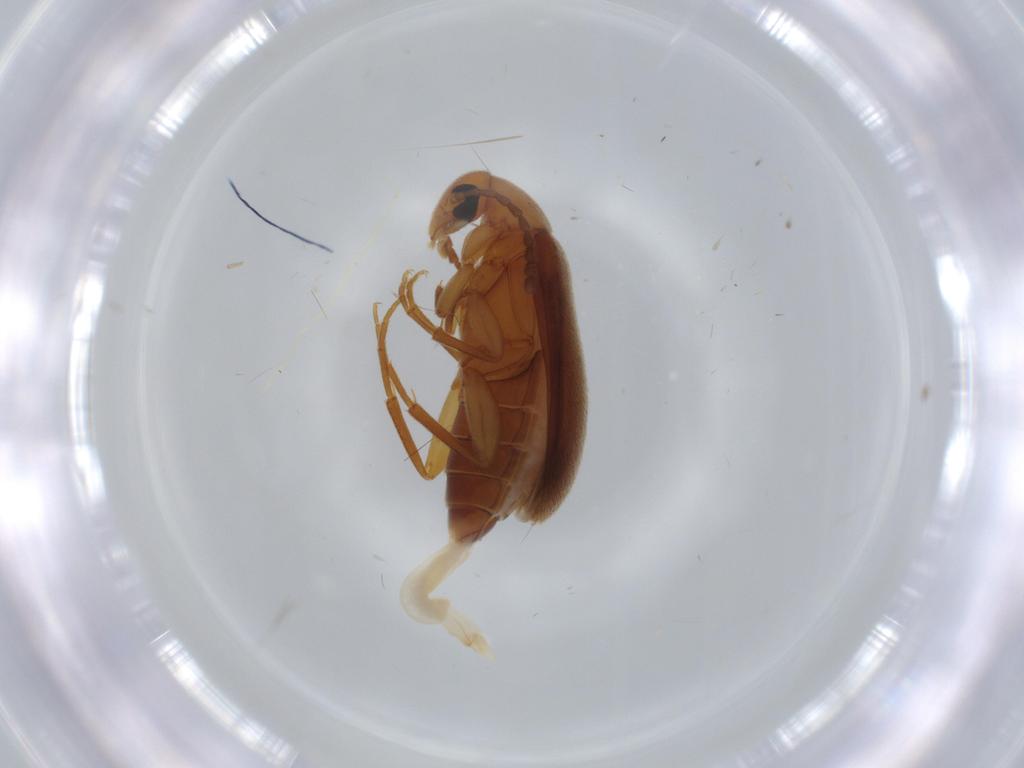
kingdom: Animalia
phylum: Arthropoda
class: Insecta
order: Coleoptera
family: Scraptiidae
